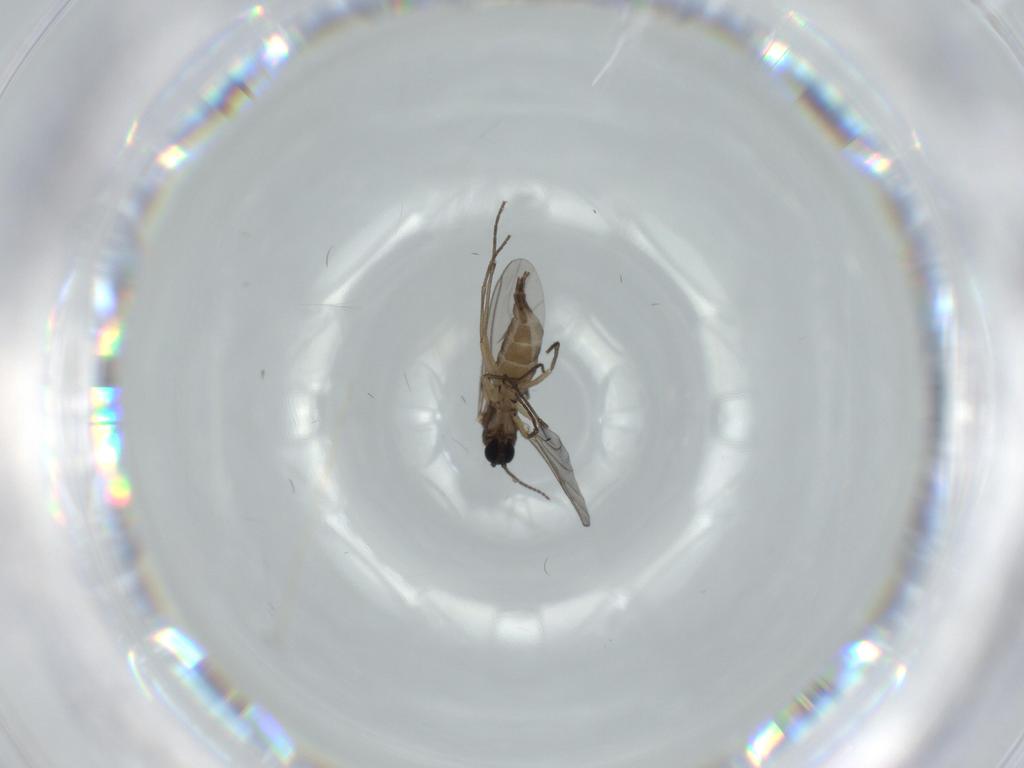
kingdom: Animalia
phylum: Arthropoda
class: Insecta
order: Diptera
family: Sciaridae
